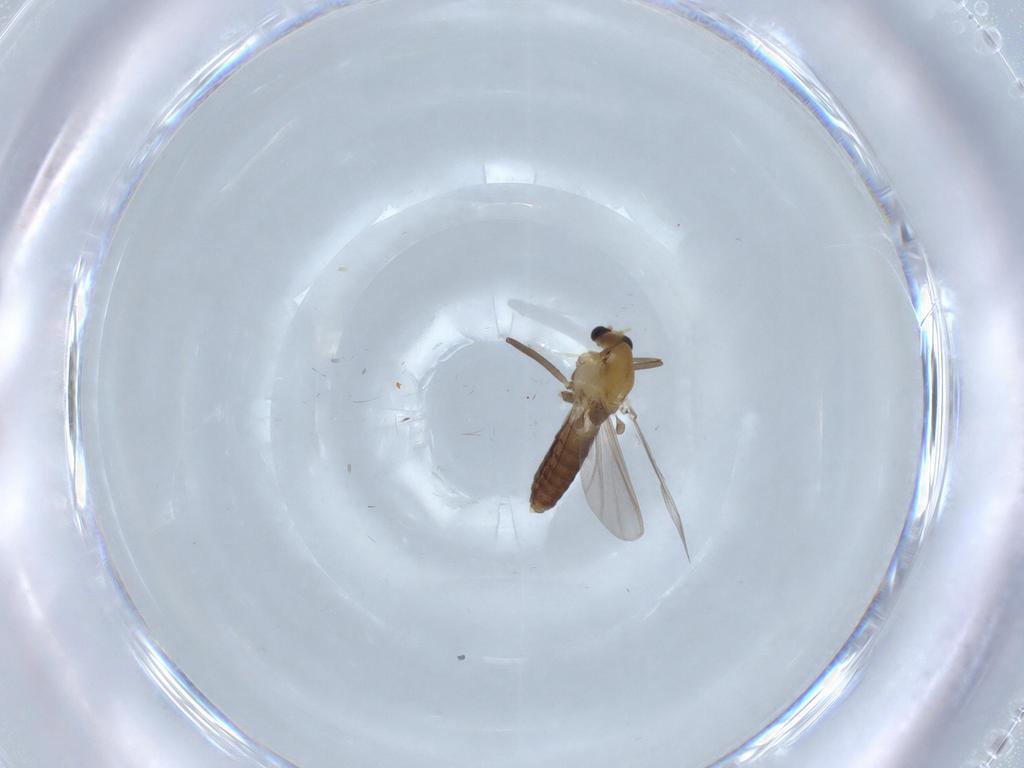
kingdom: Animalia
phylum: Arthropoda
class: Insecta
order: Diptera
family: Chironomidae
